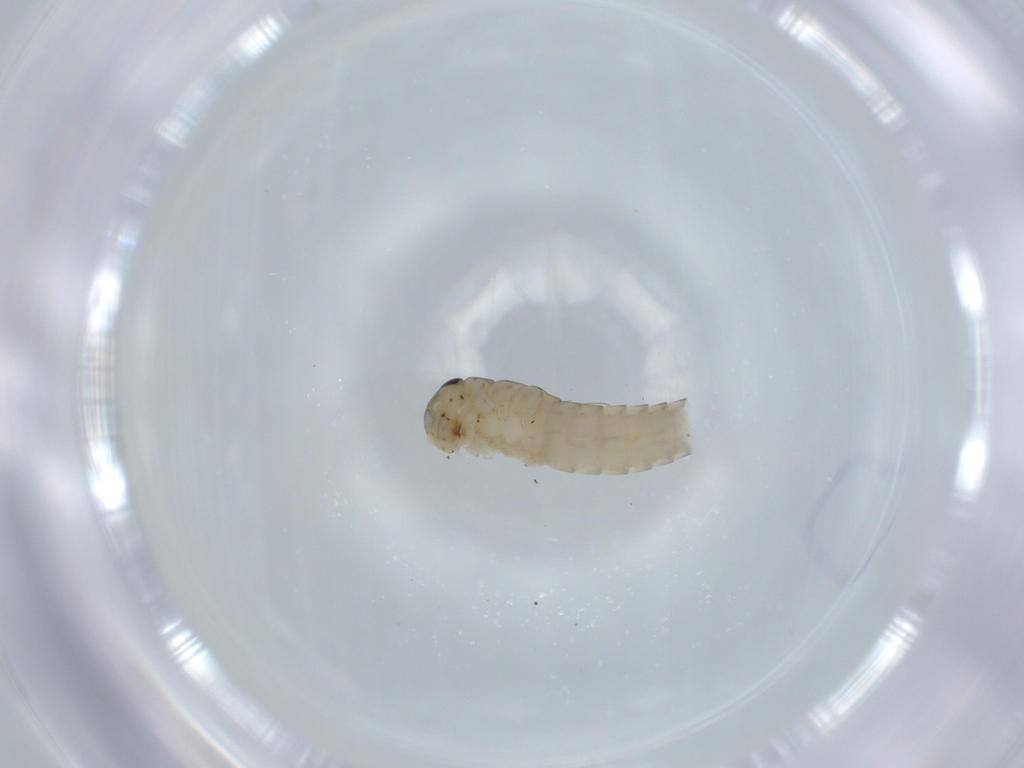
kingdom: Animalia
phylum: Arthropoda
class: Insecta
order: Ephemeroptera
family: Baetidae
